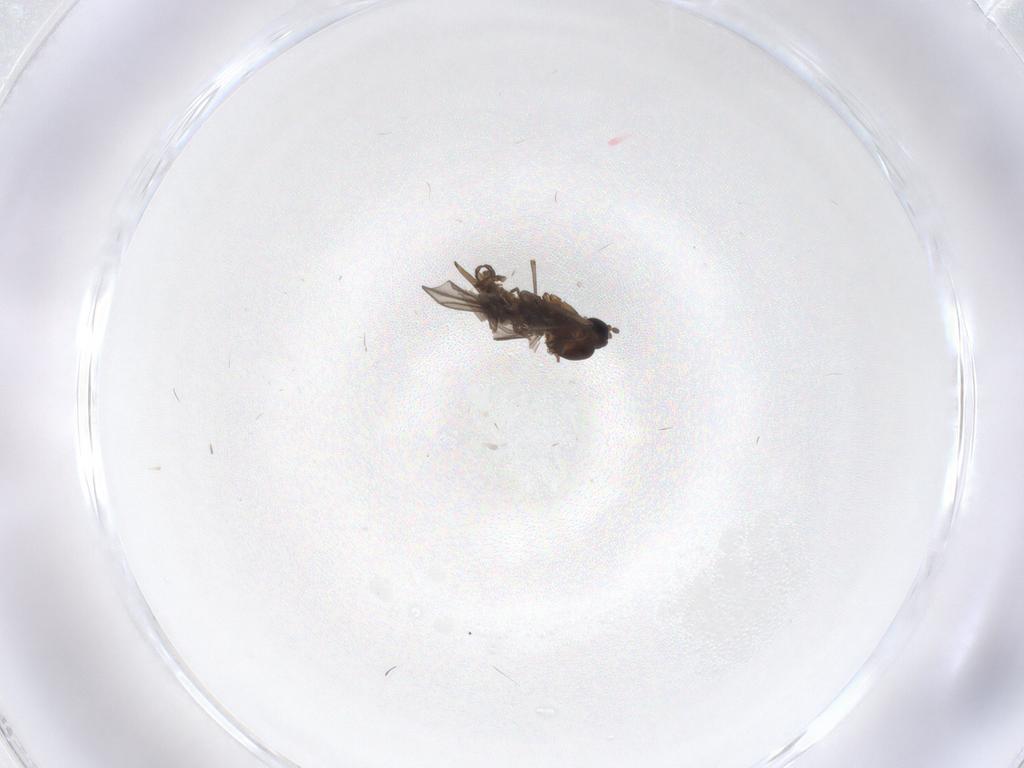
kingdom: Animalia
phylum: Arthropoda
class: Insecta
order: Diptera
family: Sciaridae
